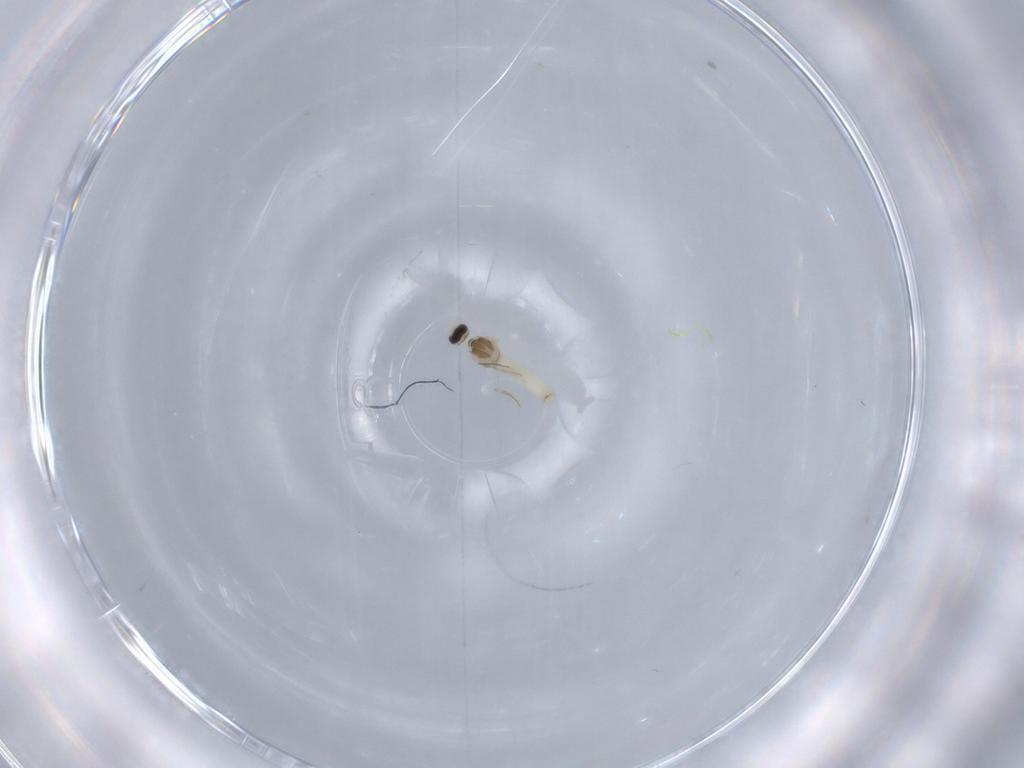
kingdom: Animalia
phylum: Arthropoda
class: Insecta
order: Diptera
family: Cecidomyiidae
